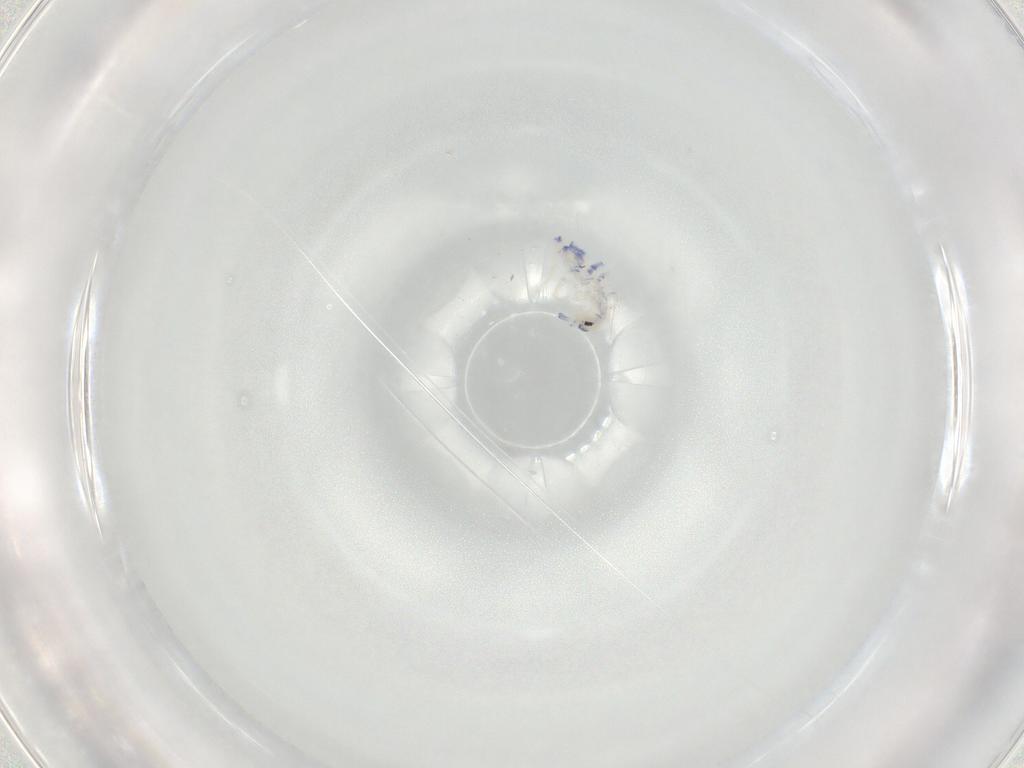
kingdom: Animalia
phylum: Arthropoda
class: Collembola
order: Entomobryomorpha
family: Entomobryidae
